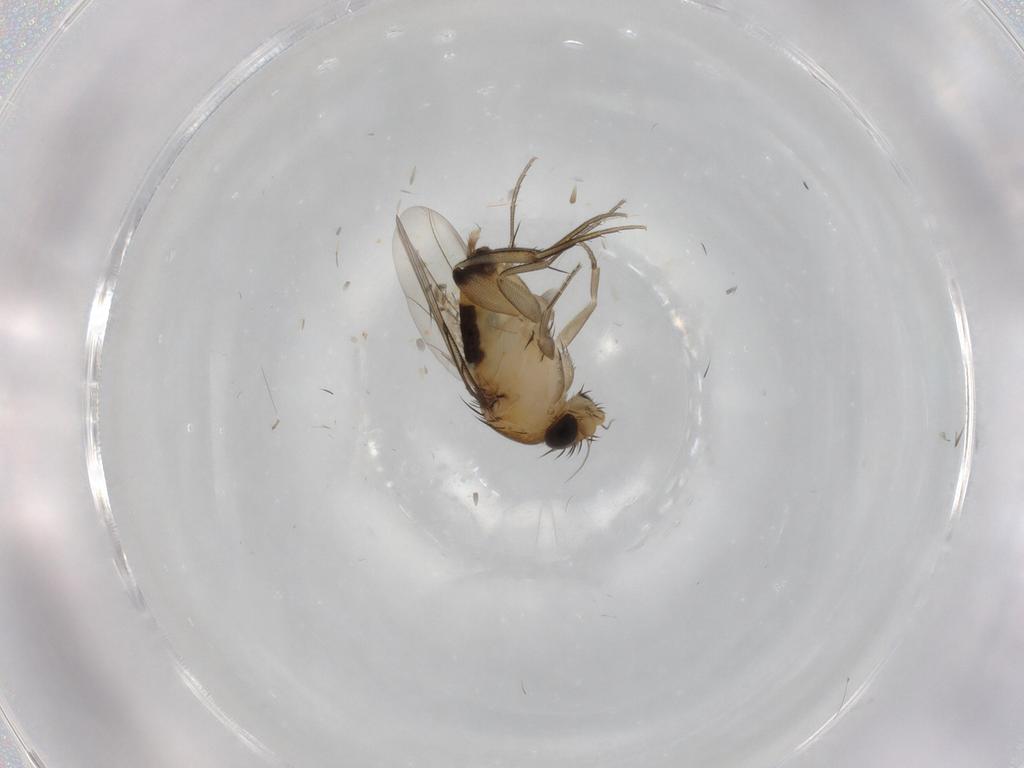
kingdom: Animalia
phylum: Arthropoda
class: Insecta
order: Diptera
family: Phoridae
